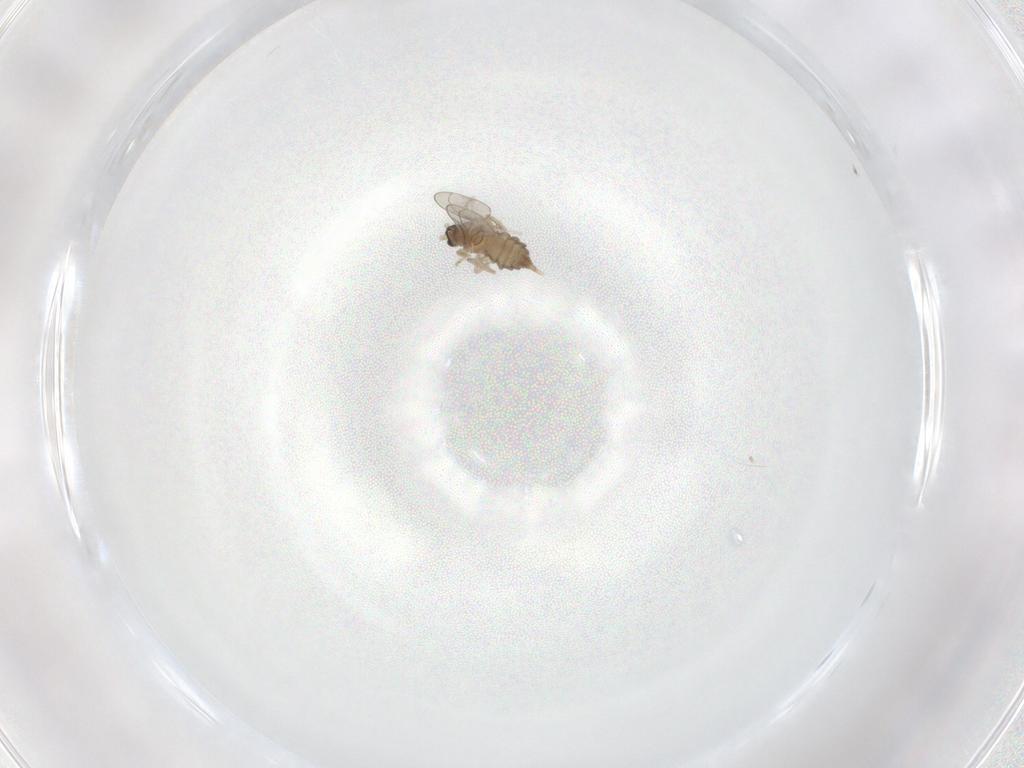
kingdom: Animalia
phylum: Arthropoda
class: Insecta
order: Diptera
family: Cecidomyiidae
